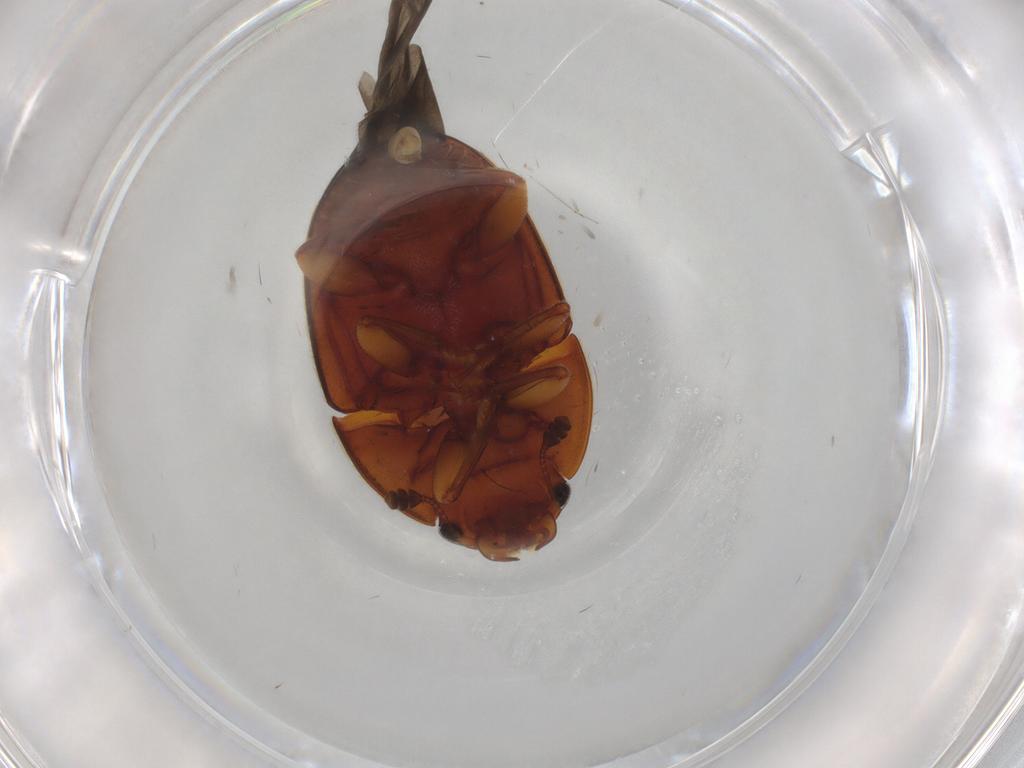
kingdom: Animalia
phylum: Arthropoda
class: Insecta
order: Coleoptera
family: Nitidulidae
